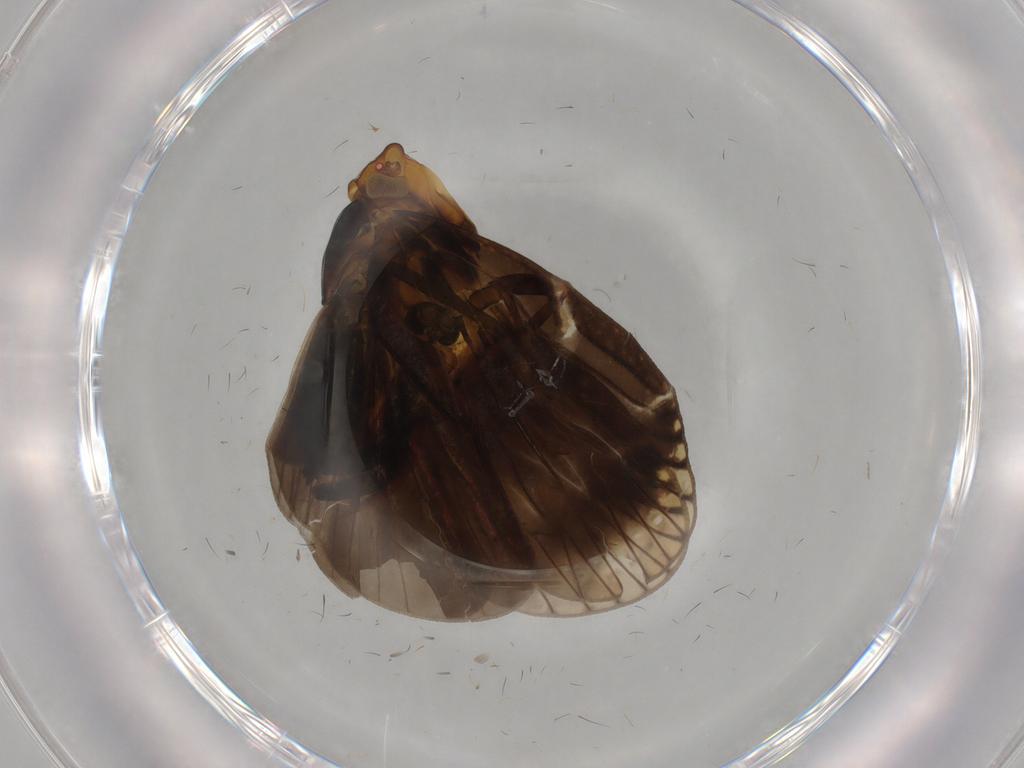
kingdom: Animalia
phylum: Arthropoda
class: Insecta
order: Hemiptera
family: Cixiidae
